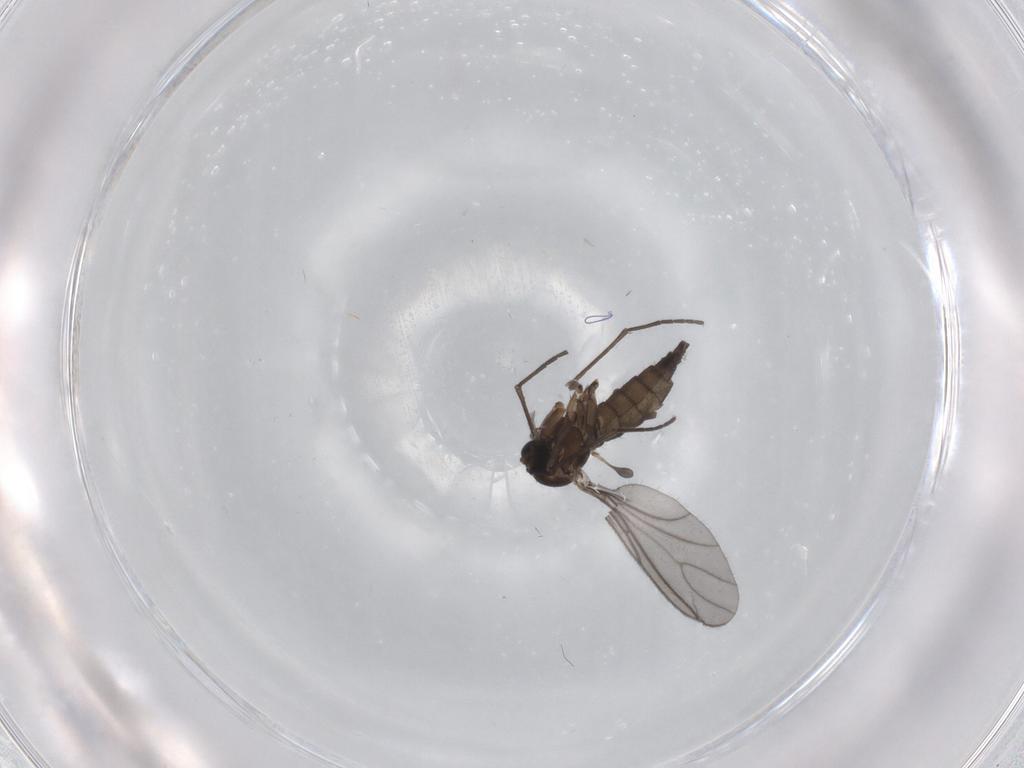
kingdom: Animalia
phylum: Arthropoda
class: Insecta
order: Diptera
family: Sciaridae
